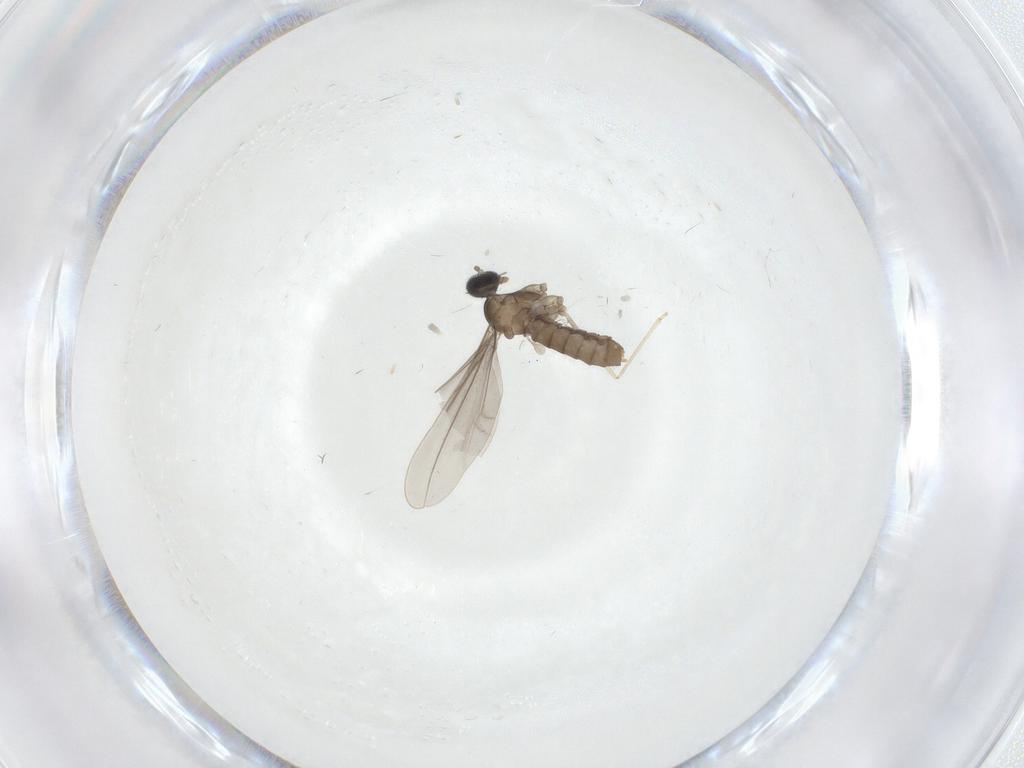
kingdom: Animalia
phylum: Arthropoda
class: Insecta
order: Diptera
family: Cecidomyiidae
